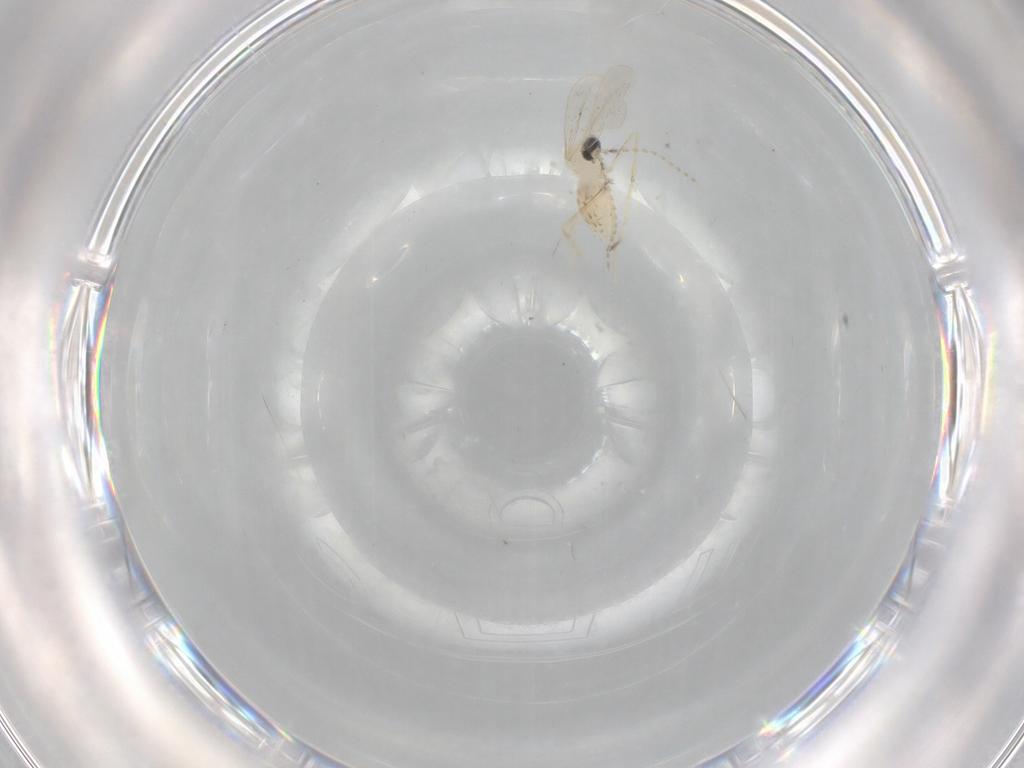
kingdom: Animalia
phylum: Arthropoda
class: Insecta
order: Diptera
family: Cecidomyiidae
